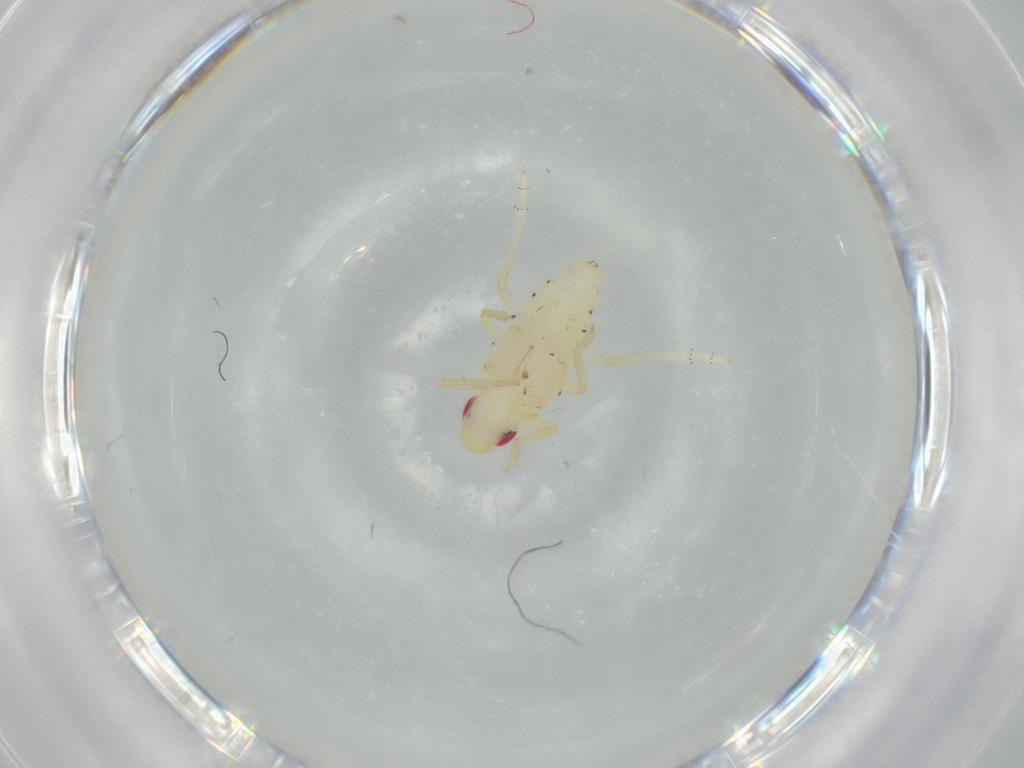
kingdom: Animalia
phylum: Arthropoda
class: Insecta
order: Hemiptera
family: Tropiduchidae
